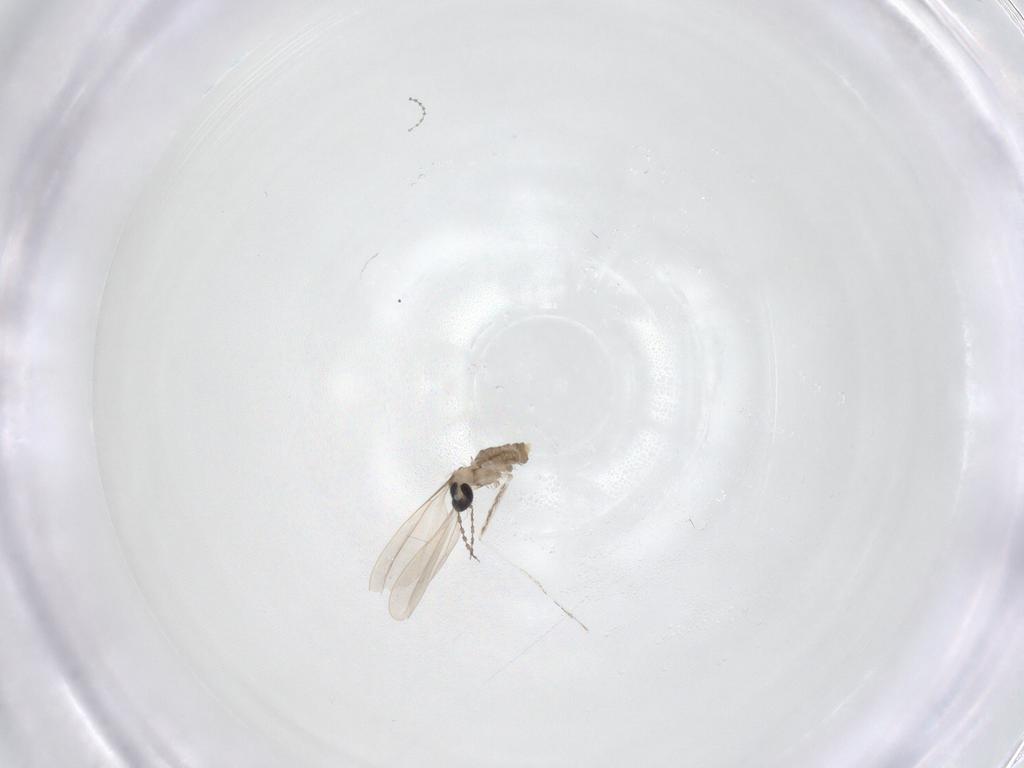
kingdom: Animalia
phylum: Arthropoda
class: Insecta
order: Diptera
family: Cecidomyiidae
